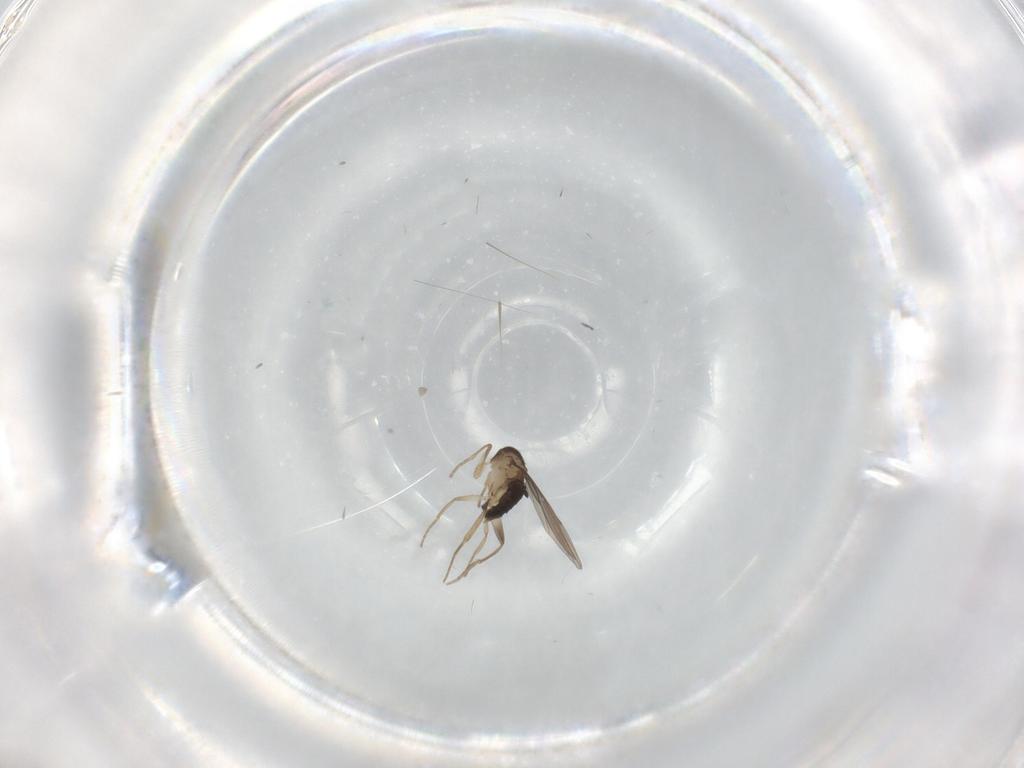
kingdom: Animalia
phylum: Arthropoda
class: Insecta
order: Diptera
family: Phoridae
